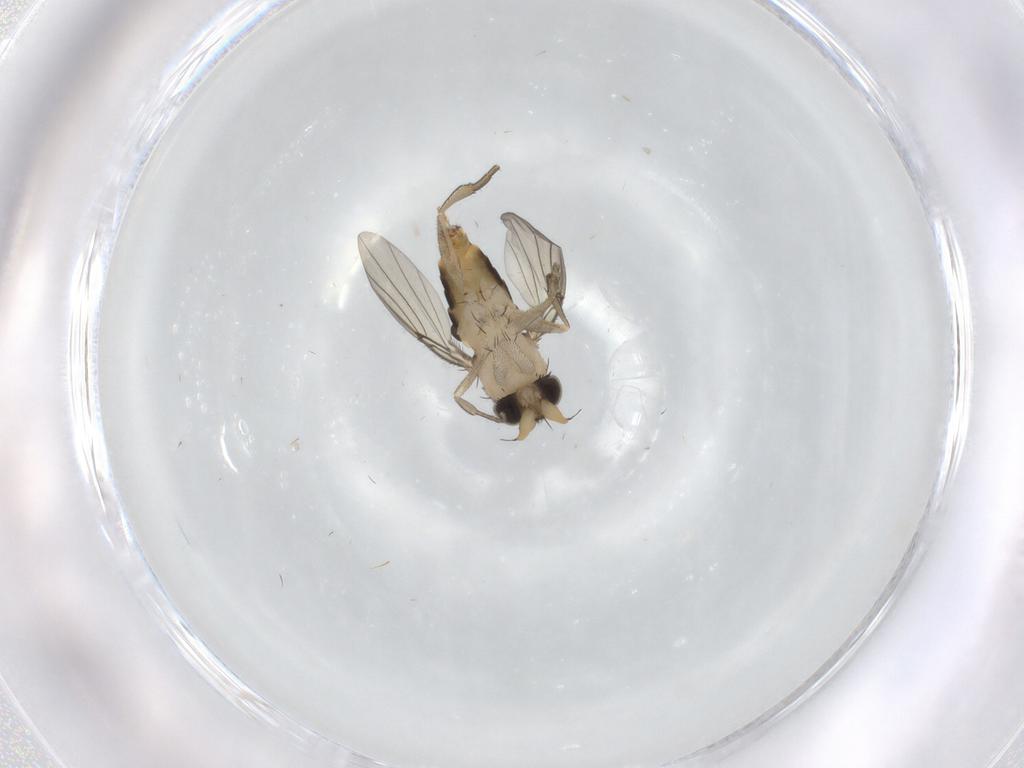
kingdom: Animalia
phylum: Arthropoda
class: Insecta
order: Diptera
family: Phoridae
